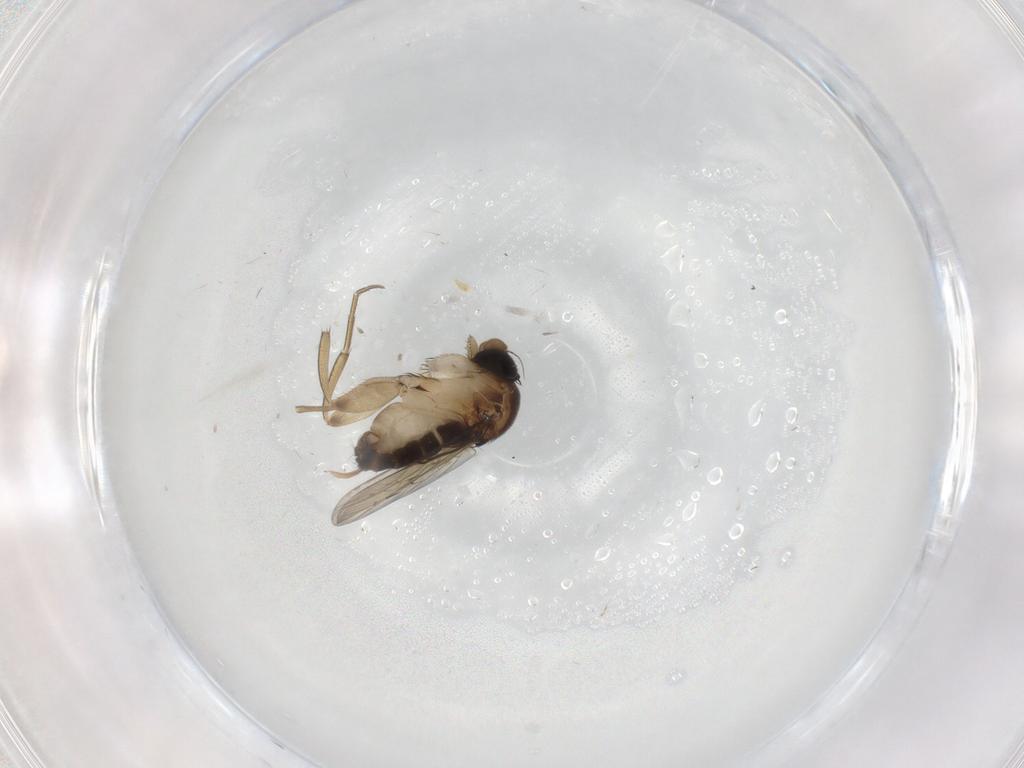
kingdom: Animalia
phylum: Arthropoda
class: Insecta
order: Diptera
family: Phoridae
